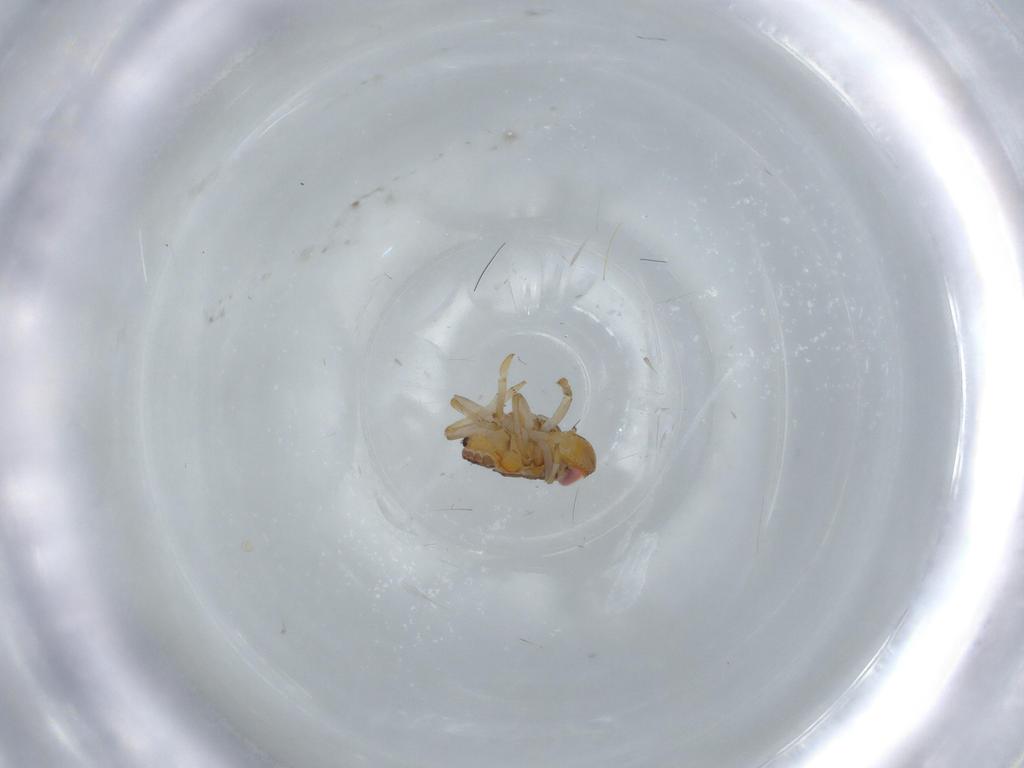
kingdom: Animalia
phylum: Arthropoda
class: Insecta
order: Hemiptera
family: Issidae
